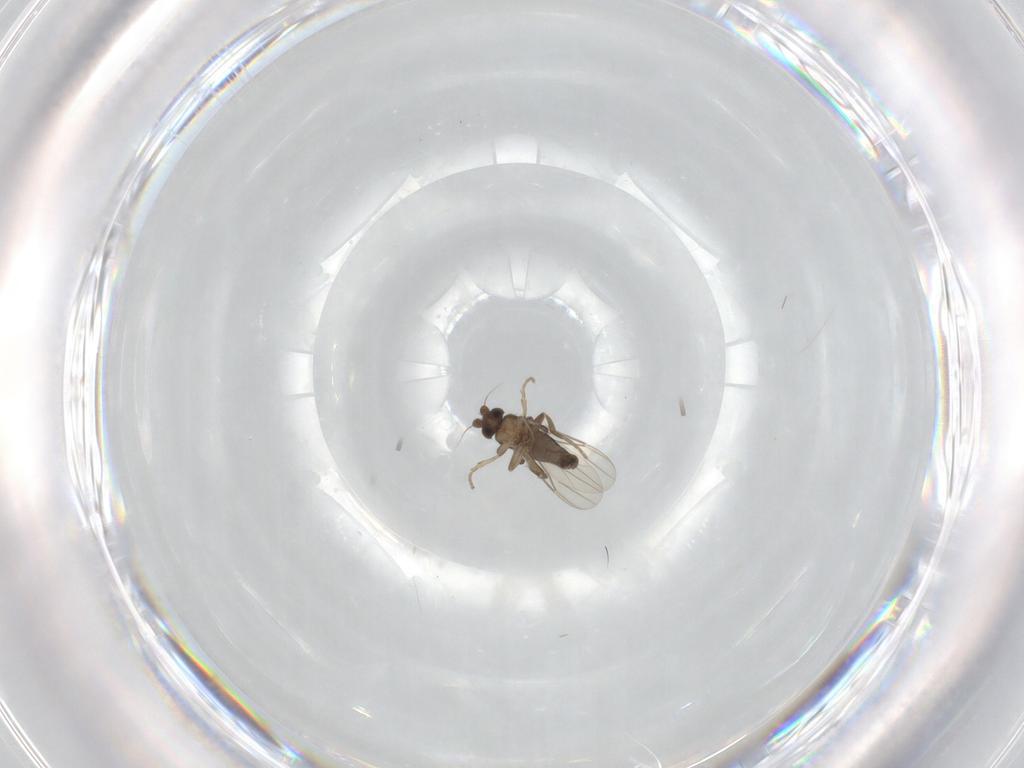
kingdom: Animalia
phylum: Arthropoda
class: Insecta
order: Diptera
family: Phoridae
